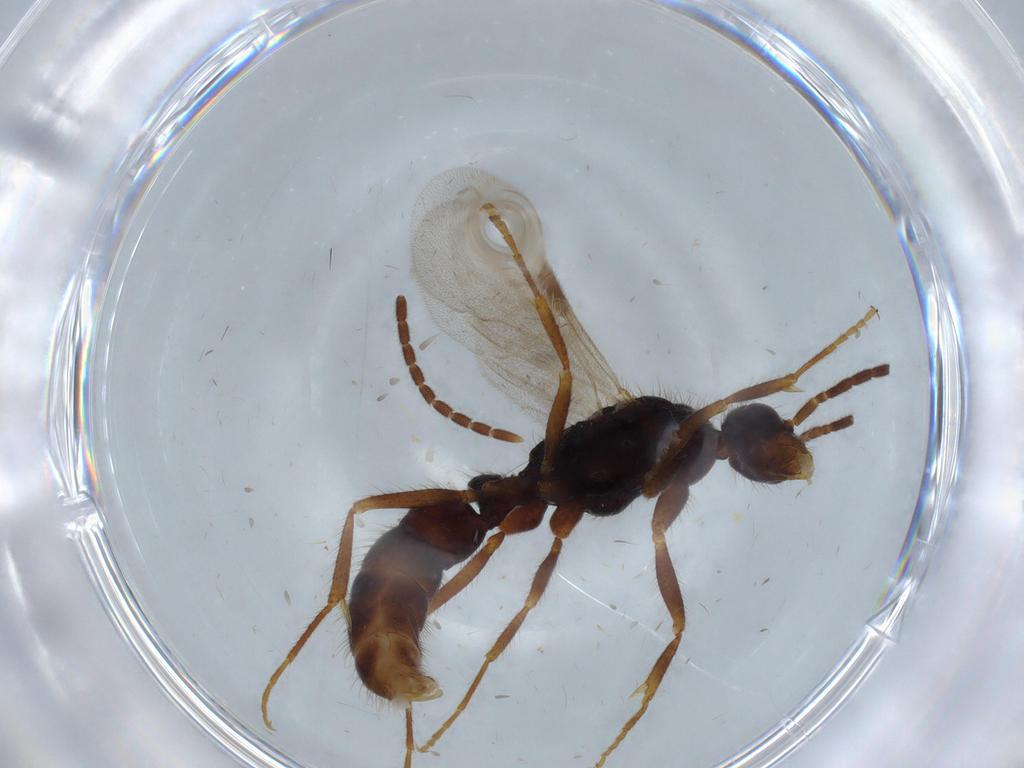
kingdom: Animalia
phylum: Arthropoda
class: Insecta
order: Hymenoptera
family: Formicidae
